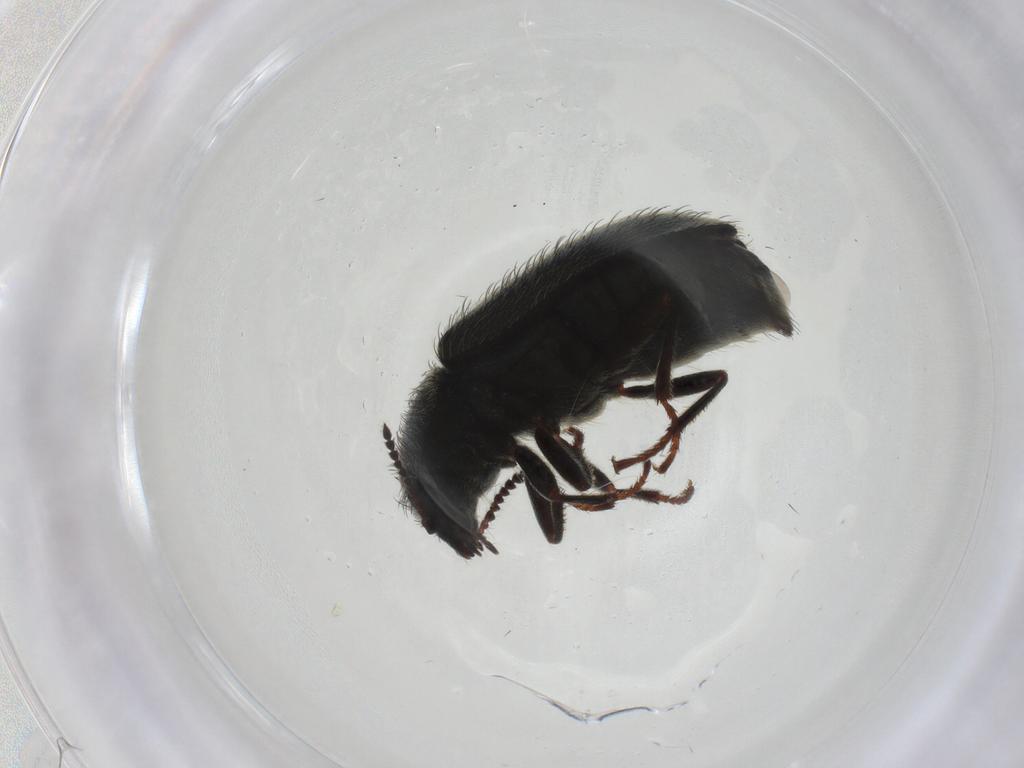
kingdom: Animalia
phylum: Arthropoda
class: Insecta
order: Coleoptera
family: Melyridae
